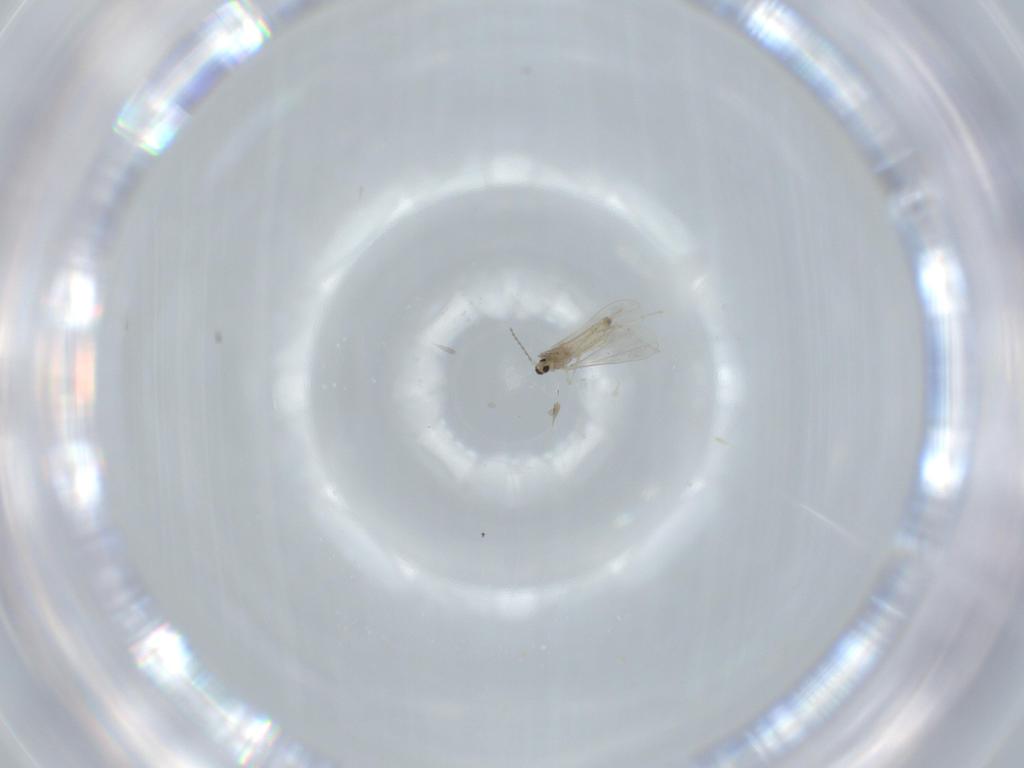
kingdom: Animalia
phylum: Arthropoda
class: Insecta
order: Diptera
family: Cecidomyiidae
